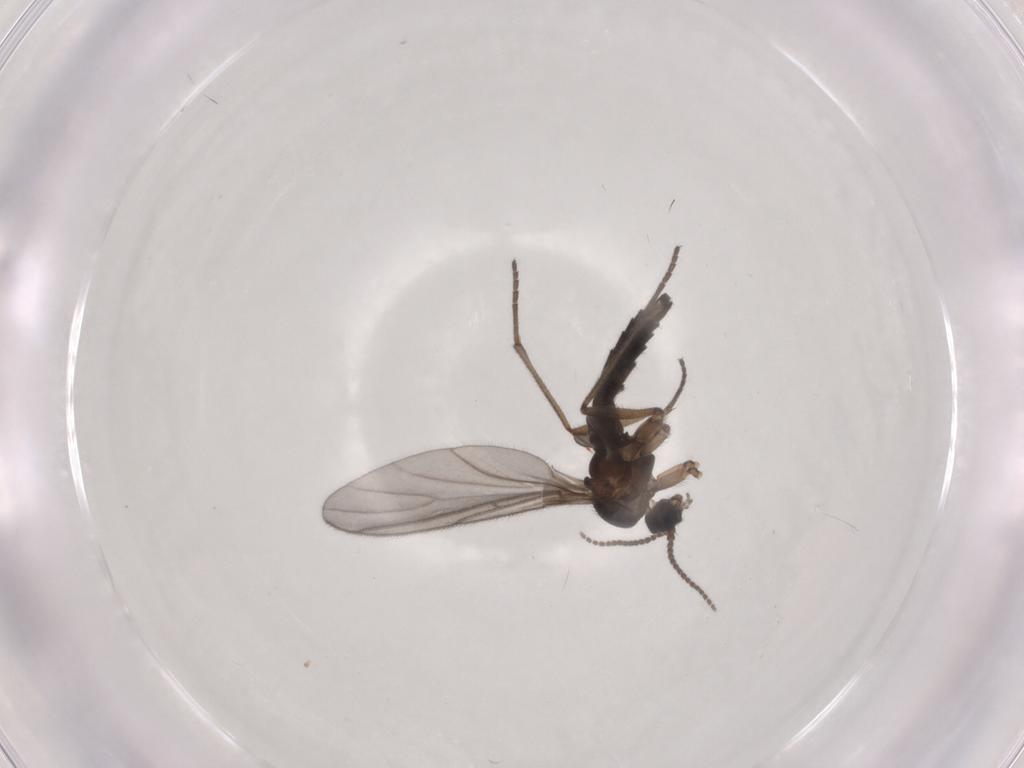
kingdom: Animalia
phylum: Arthropoda
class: Insecta
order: Diptera
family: Sciaridae
